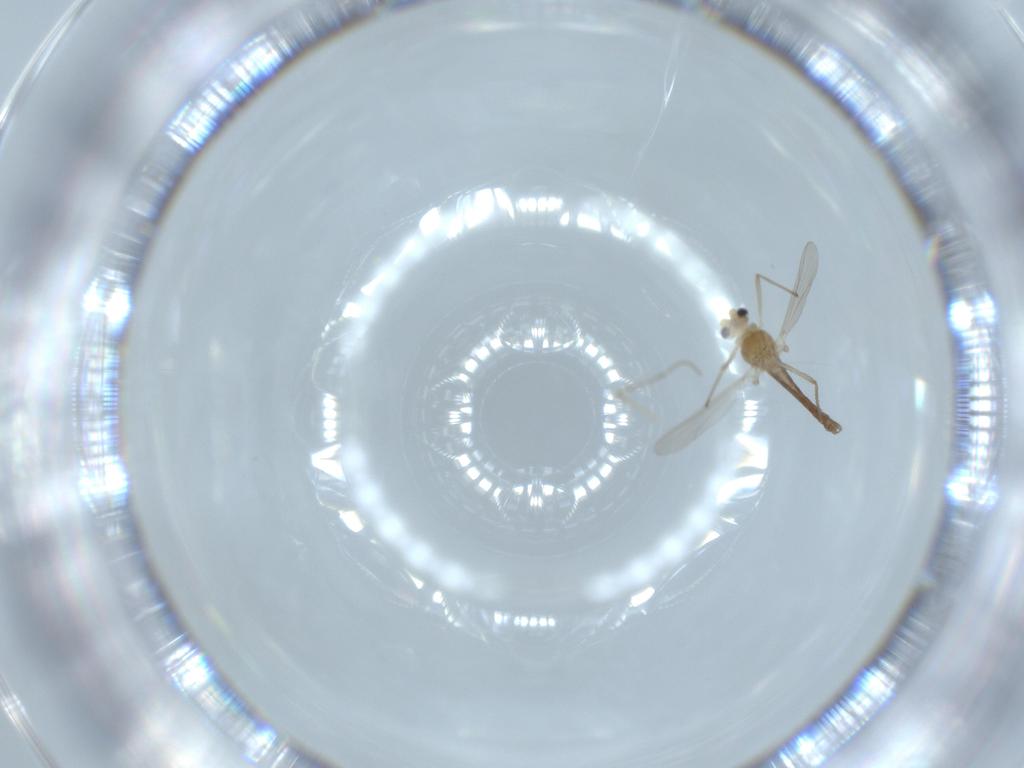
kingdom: Animalia
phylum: Arthropoda
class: Insecta
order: Diptera
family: Chironomidae
